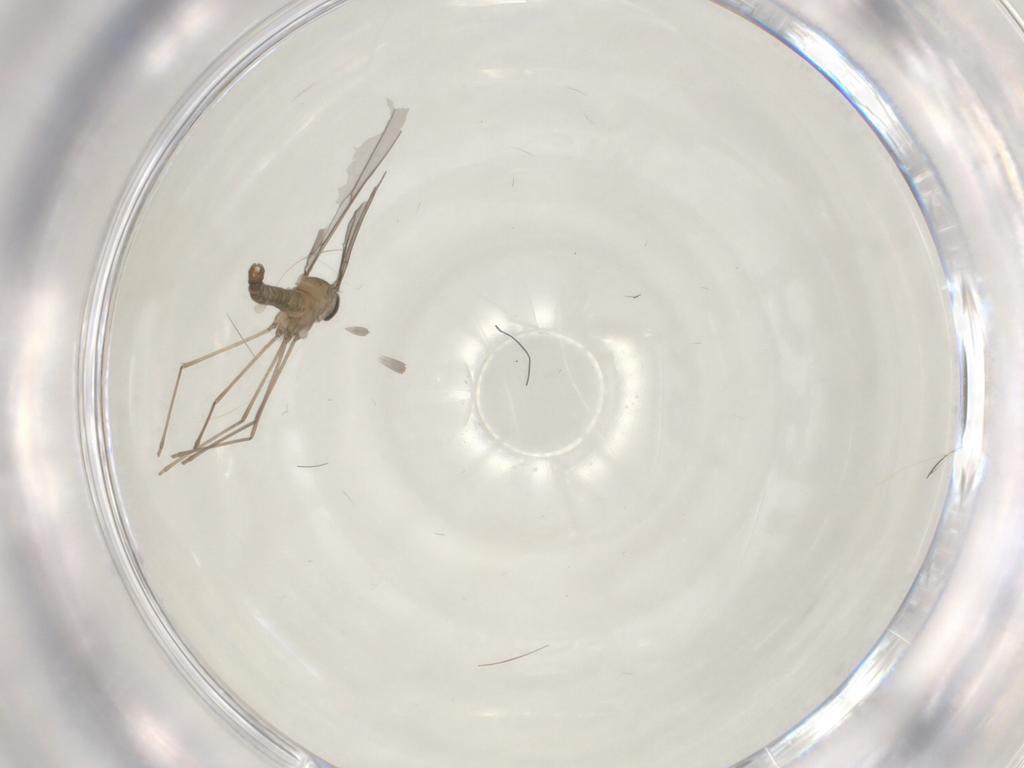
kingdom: Animalia
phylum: Arthropoda
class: Insecta
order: Diptera
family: Cecidomyiidae
